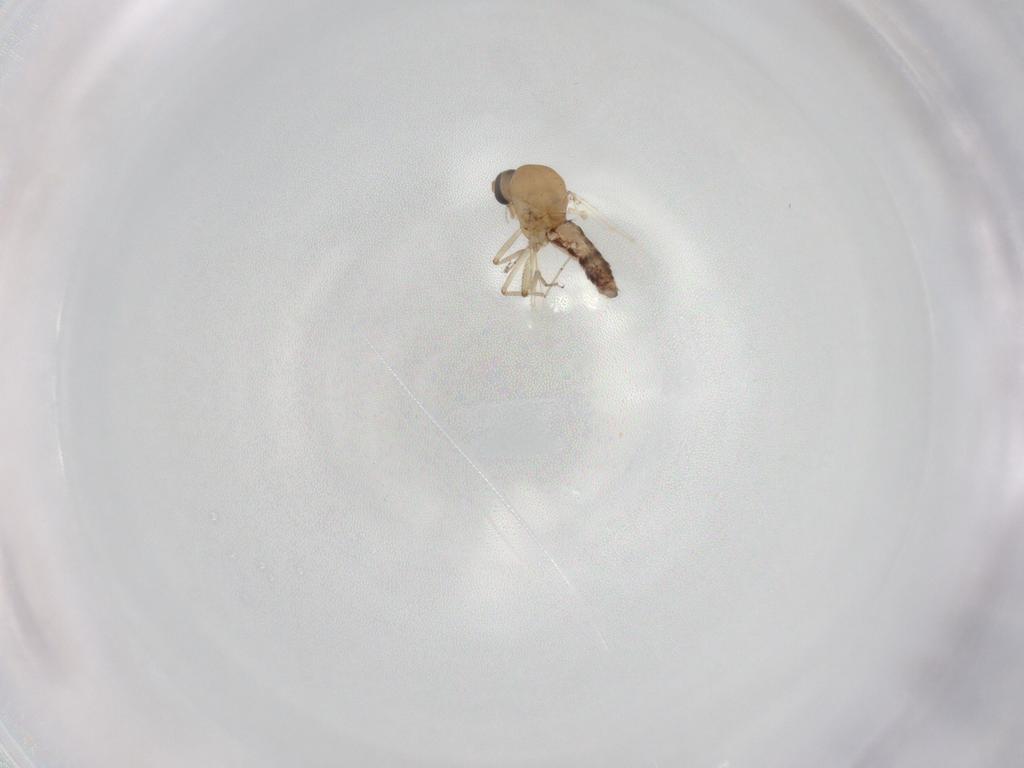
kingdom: Animalia
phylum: Arthropoda
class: Insecta
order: Diptera
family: Ceratopogonidae
